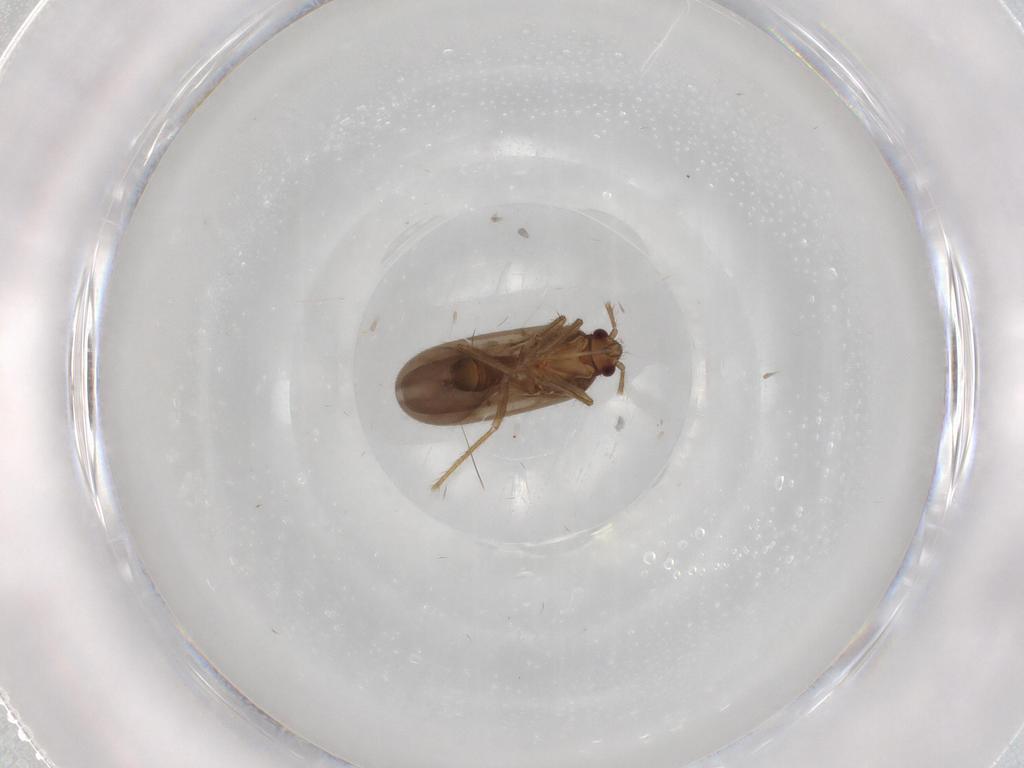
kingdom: Animalia
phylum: Arthropoda
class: Insecta
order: Hemiptera
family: Ceratocombidae
